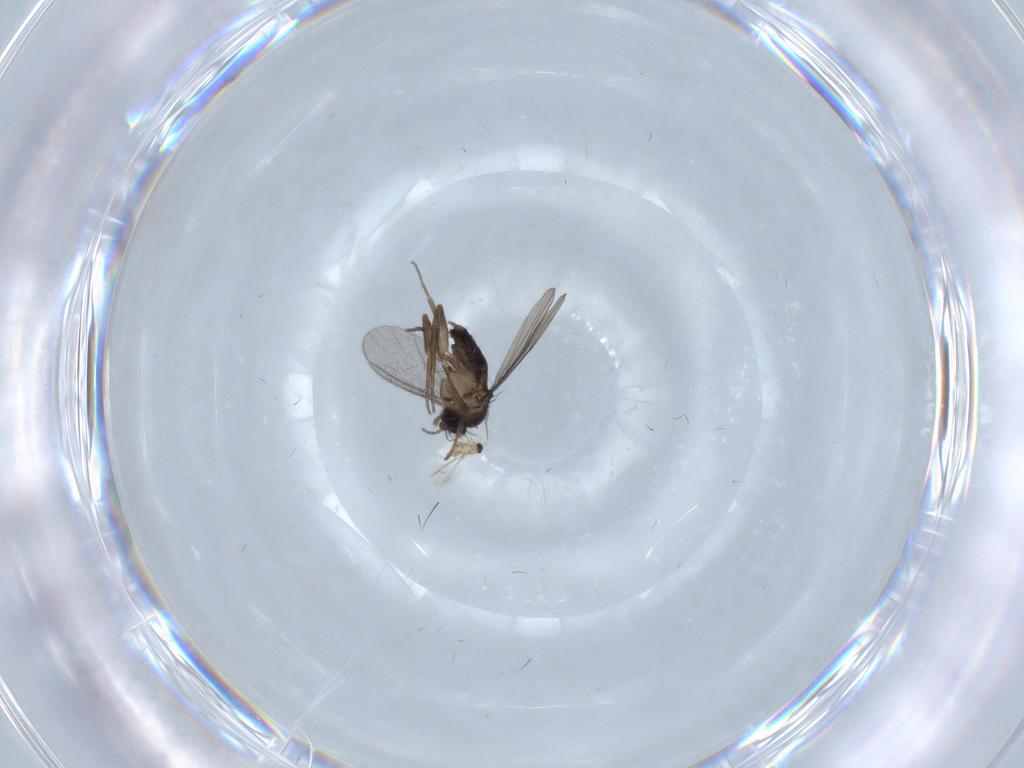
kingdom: Animalia
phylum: Arthropoda
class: Insecta
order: Diptera
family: Sciaridae
